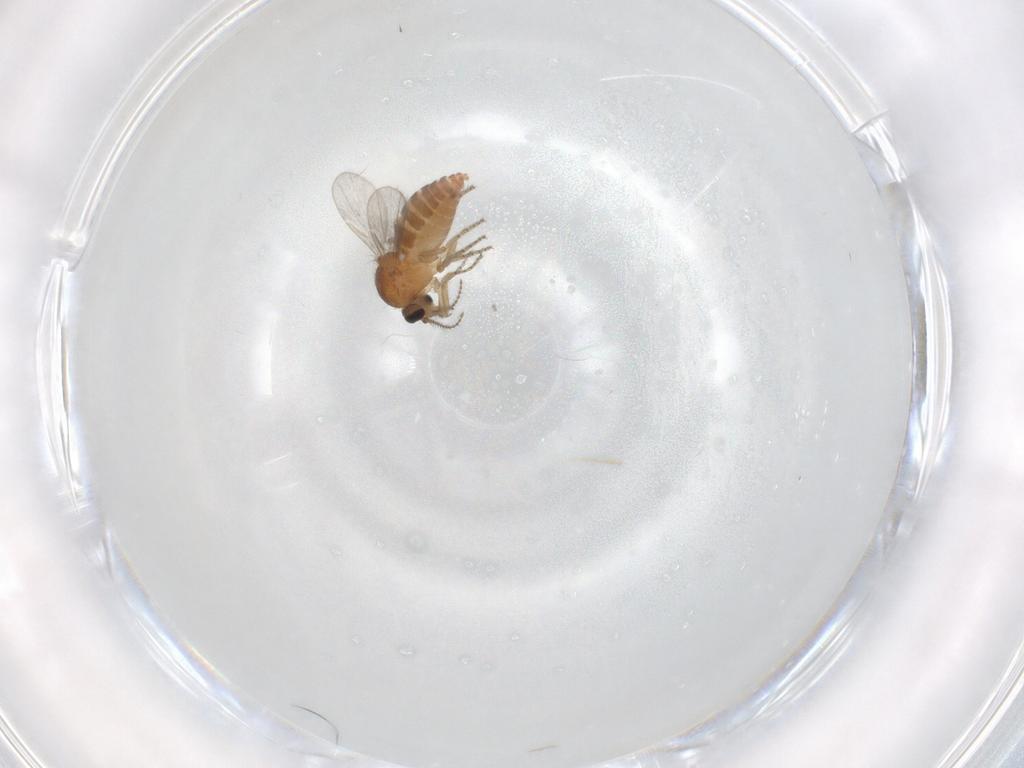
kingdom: Animalia
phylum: Arthropoda
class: Insecta
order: Diptera
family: Ceratopogonidae
